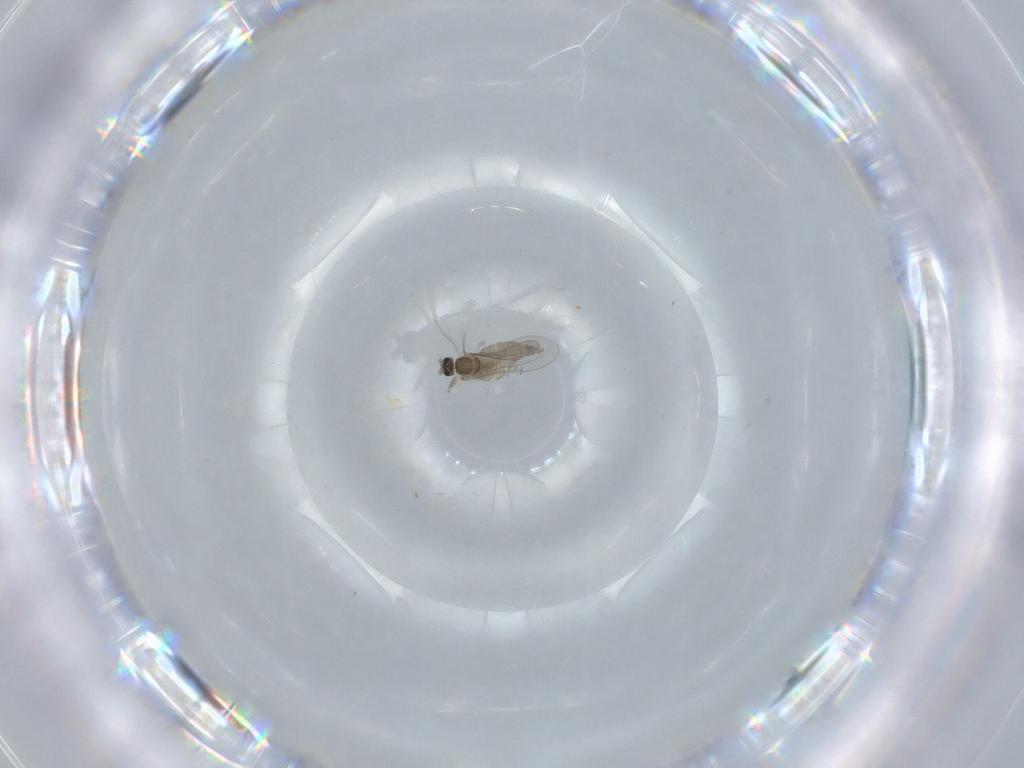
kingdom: Animalia
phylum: Arthropoda
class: Insecta
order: Diptera
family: Cecidomyiidae
